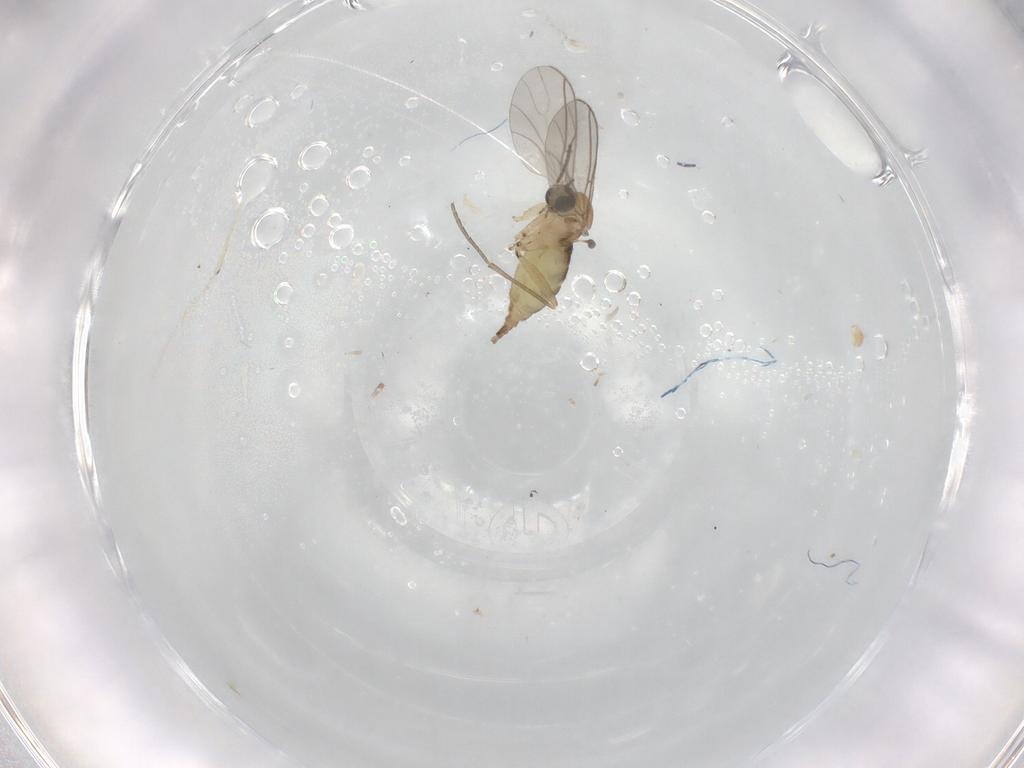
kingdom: Animalia
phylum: Arthropoda
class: Insecta
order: Diptera
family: Sciaridae
